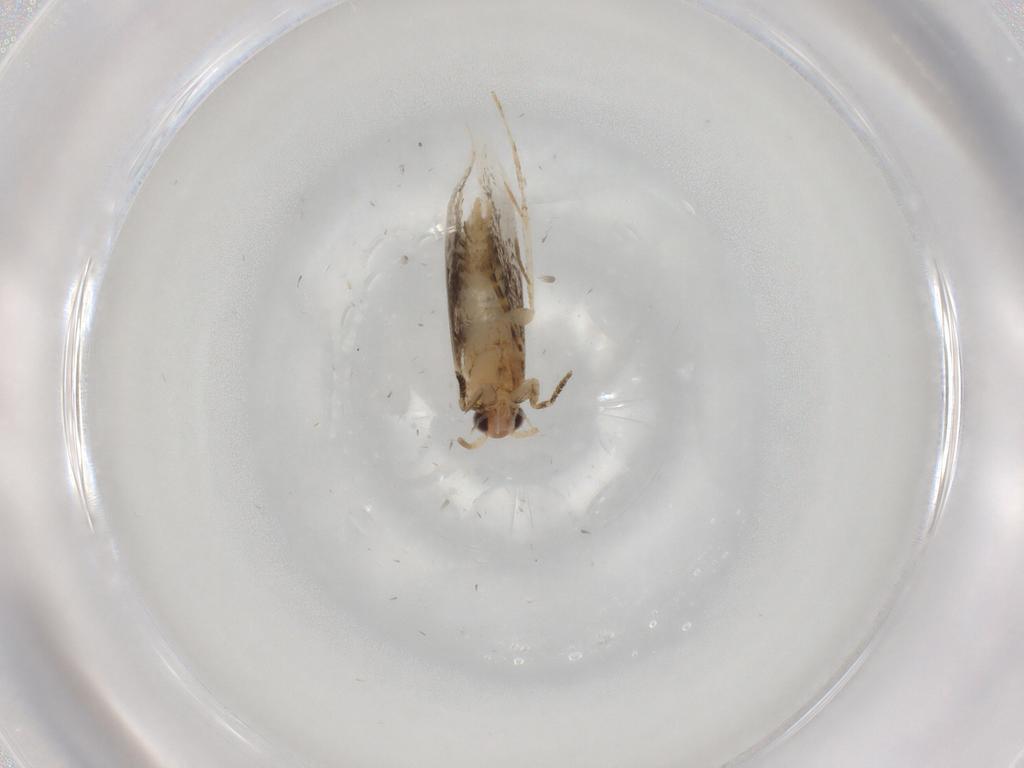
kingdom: Animalia
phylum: Arthropoda
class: Insecta
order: Lepidoptera
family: Tineidae
